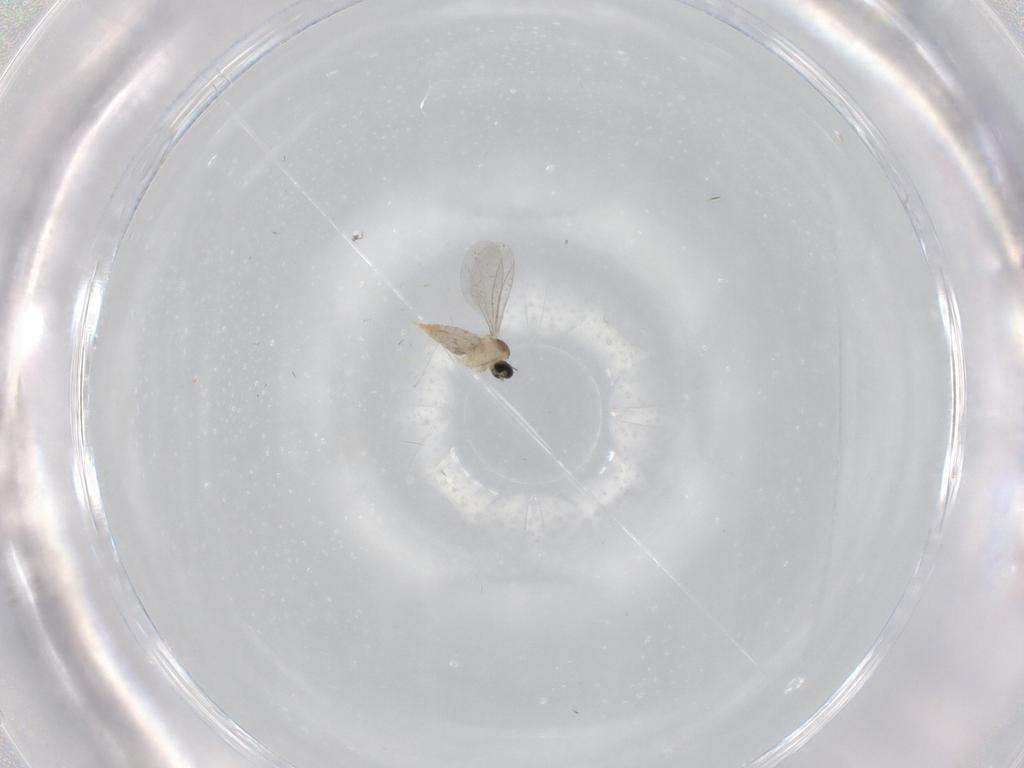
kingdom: Animalia
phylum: Arthropoda
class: Insecta
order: Diptera
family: Cecidomyiidae
